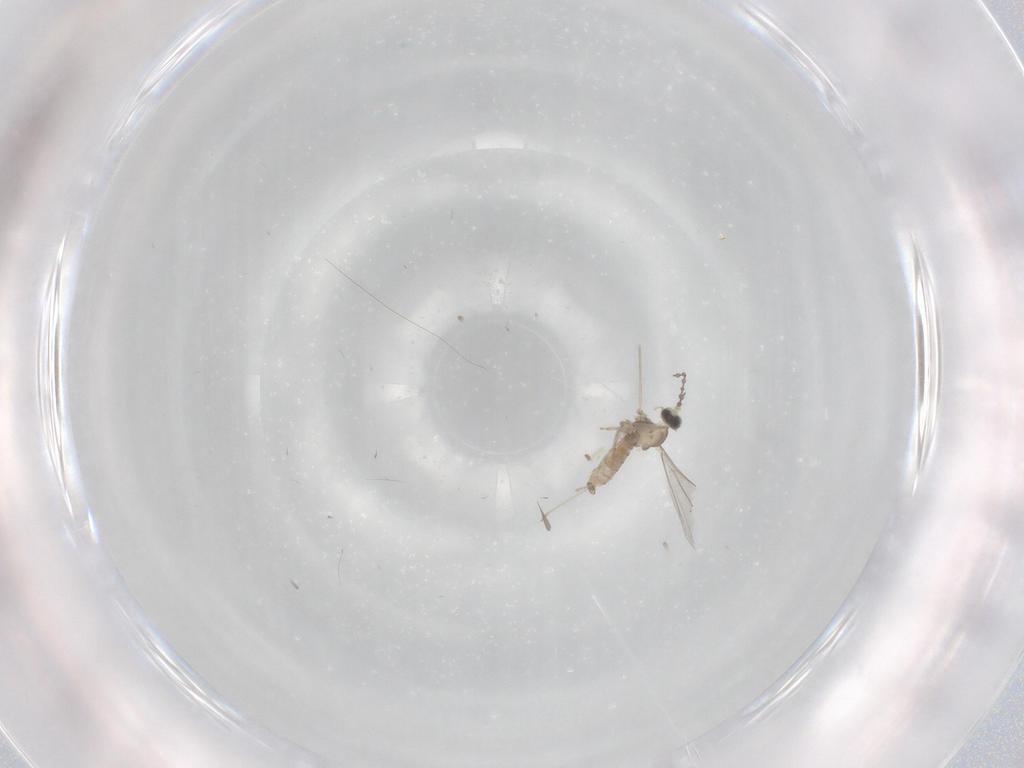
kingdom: Animalia
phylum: Arthropoda
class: Insecta
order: Diptera
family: Cecidomyiidae
